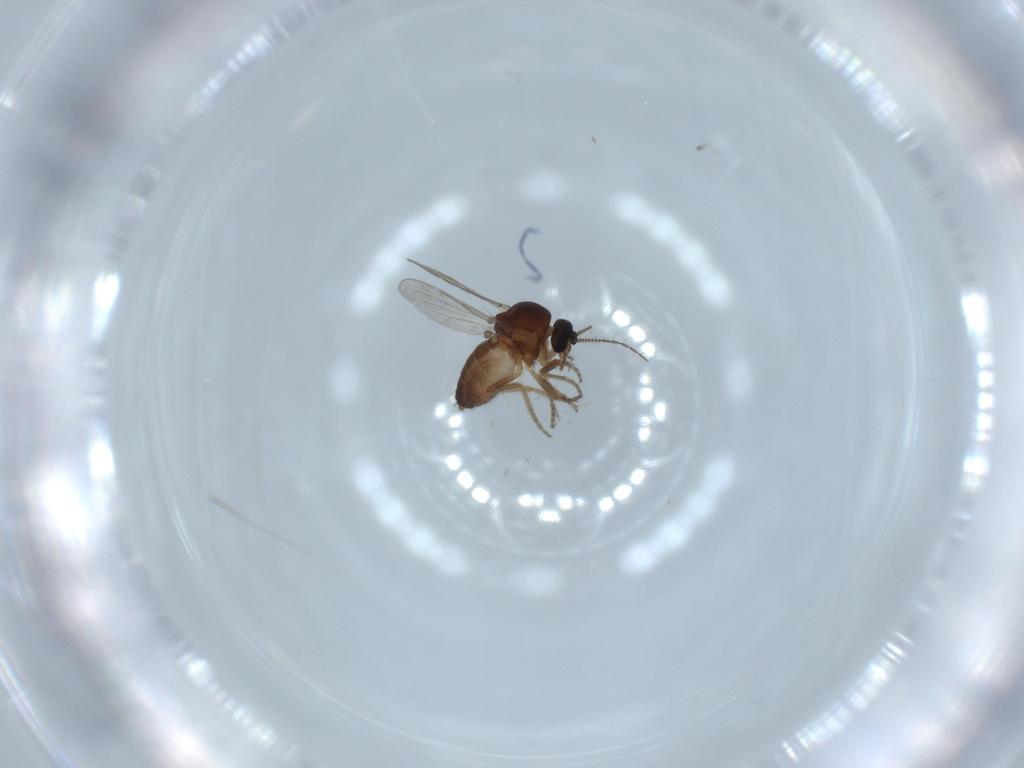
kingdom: Animalia
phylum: Arthropoda
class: Insecta
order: Diptera
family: Ceratopogonidae
